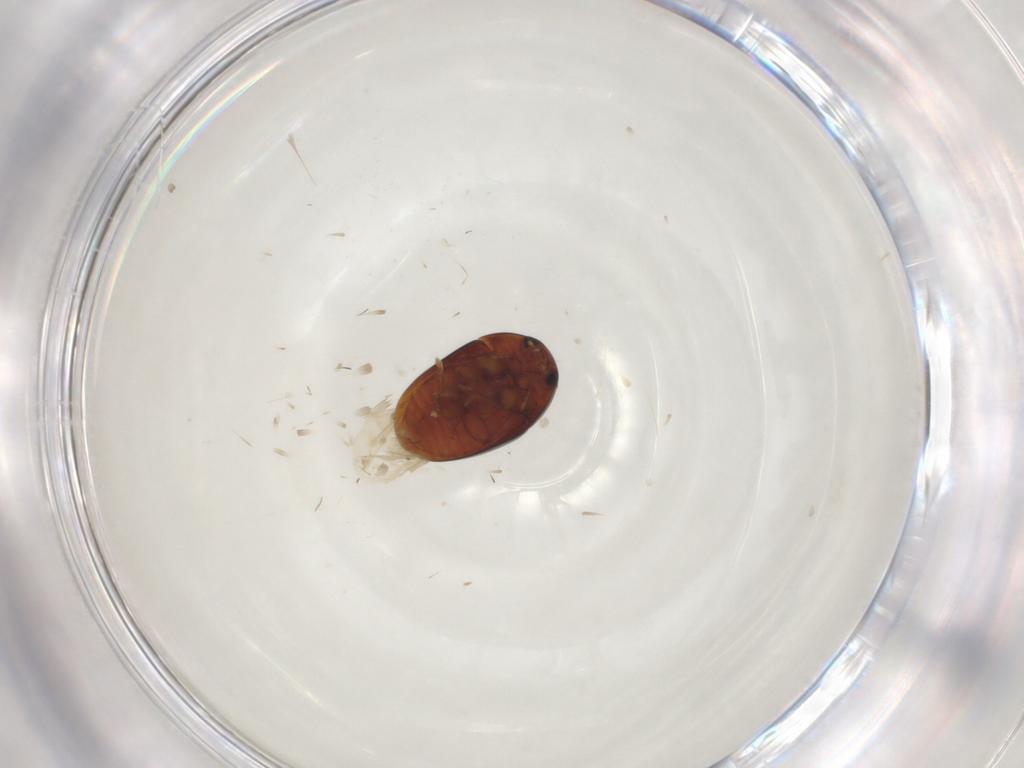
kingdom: Animalia
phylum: Arthropoda
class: Insecta
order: Coleoptera
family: Phalacridae
